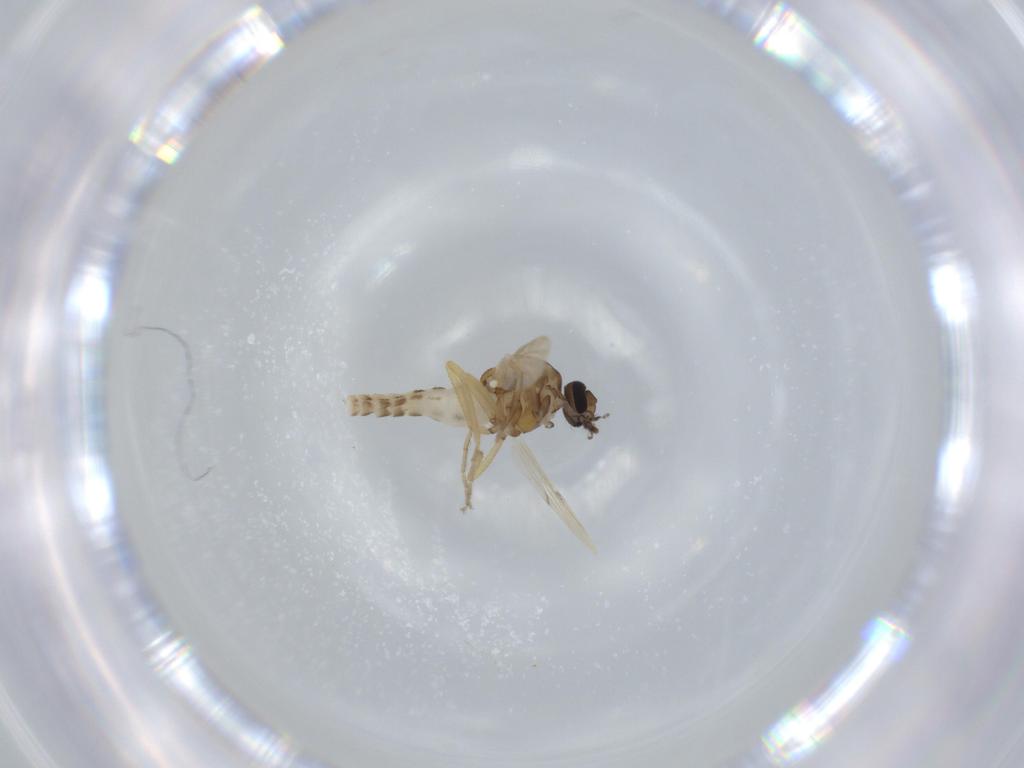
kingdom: Animalia
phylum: Arthropoda
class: Insecta
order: Diptera
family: Ceratopogonidae
